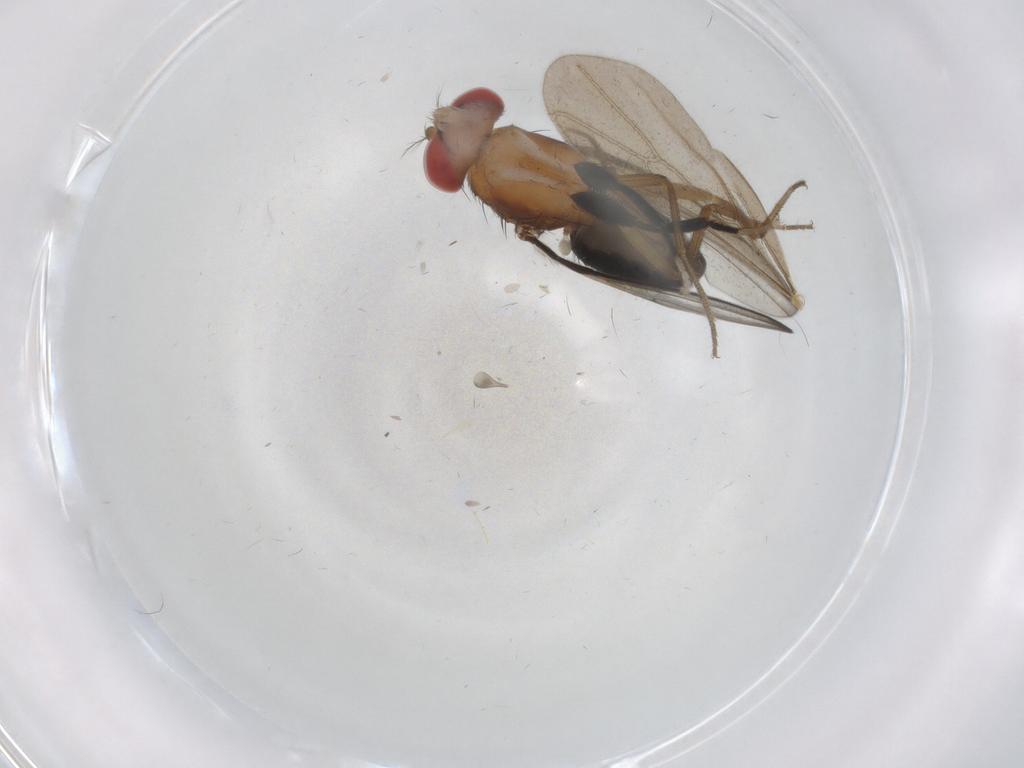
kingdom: Animalia
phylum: Arthropoda
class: Insecta
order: Diptera
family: Drosophilidae
